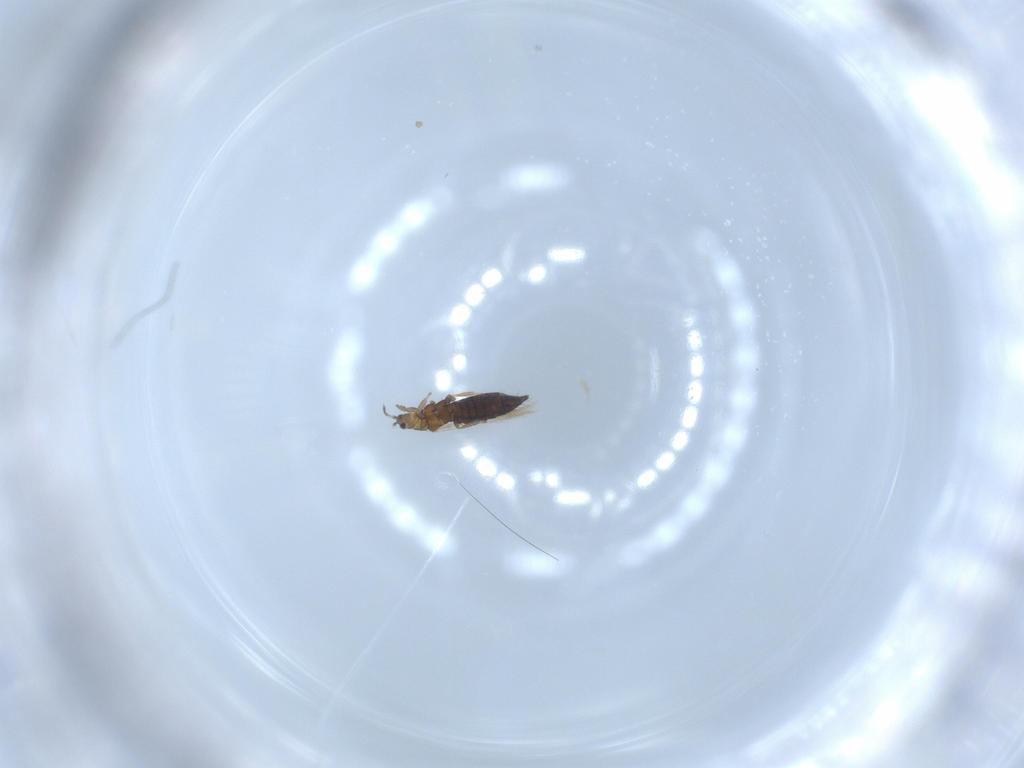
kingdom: Animalia
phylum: Arthropoda
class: Insecta
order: Thysanoptera
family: Thripidae
